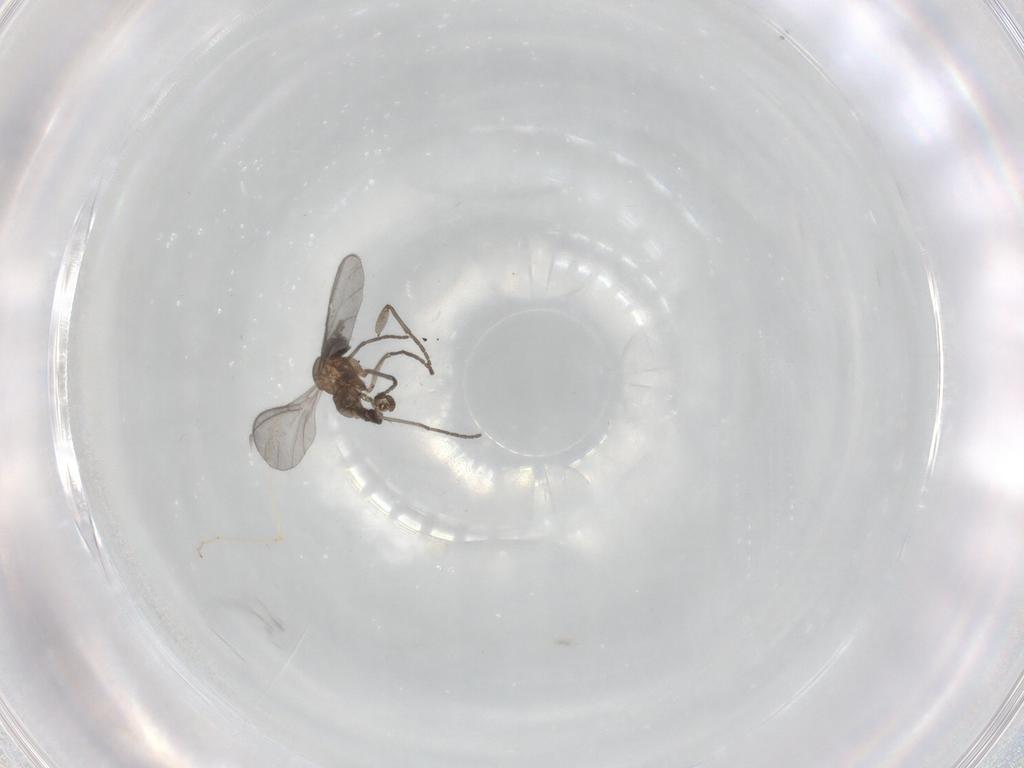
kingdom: Animalia
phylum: Arthropoda
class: Insecta
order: Diptera
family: Sciaridae
